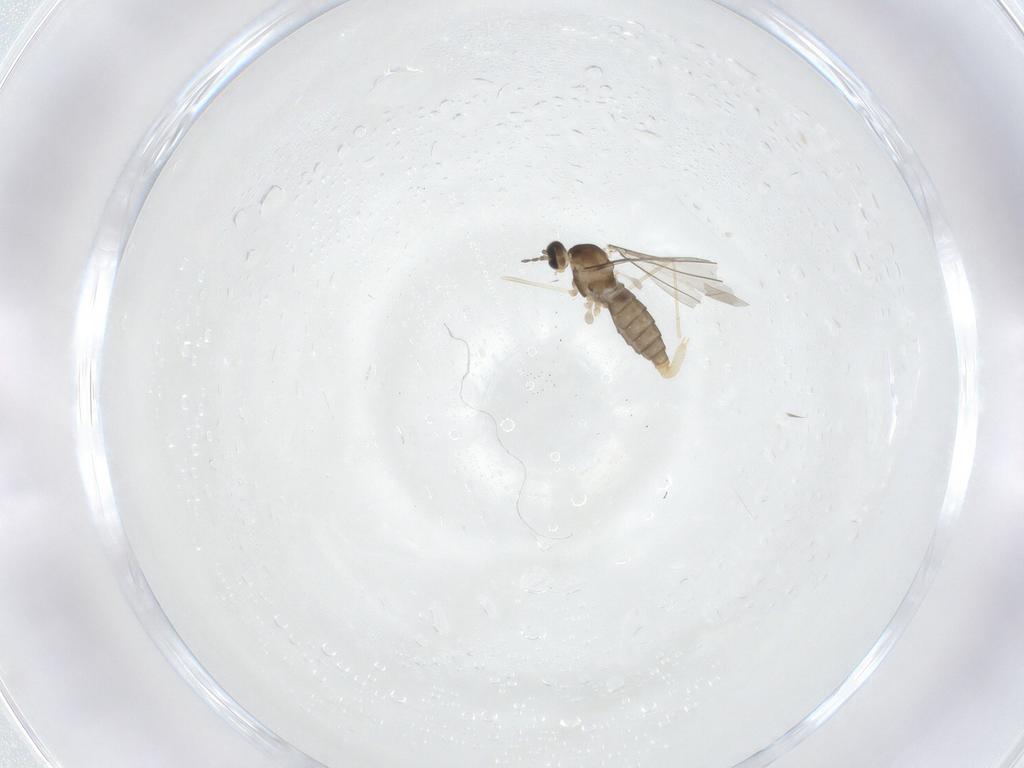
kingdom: Animalia
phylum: Arthropoda
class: Insecta
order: Diptera
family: Cecidomyiidae
